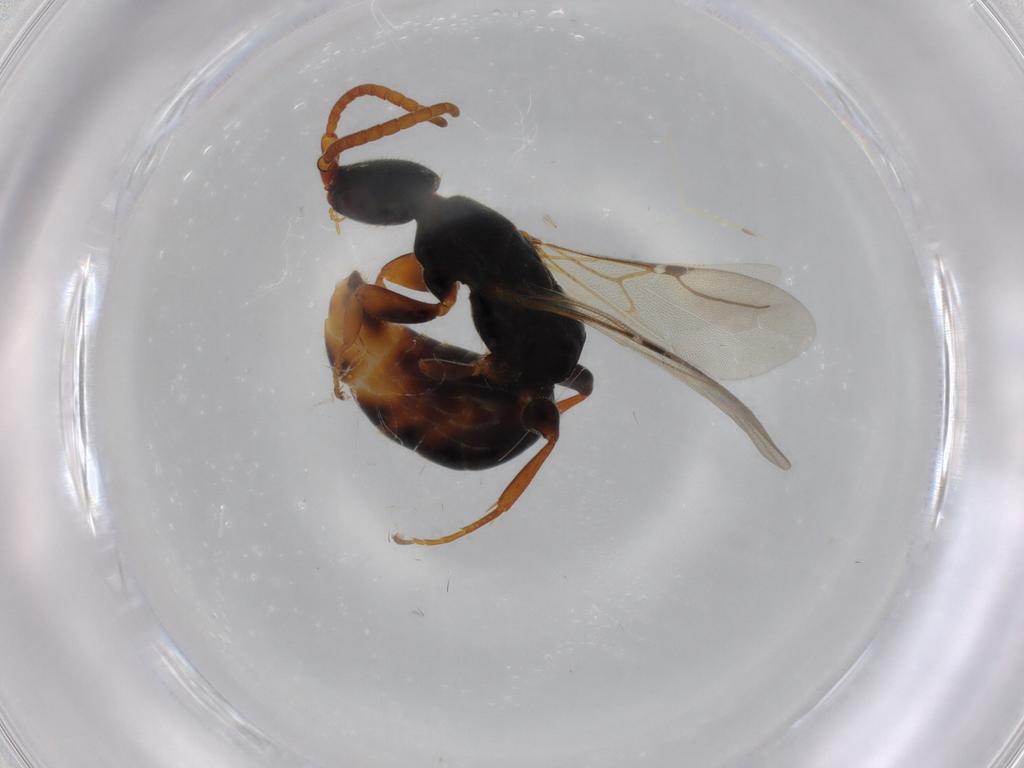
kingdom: Animalia
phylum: Arthropoda
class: Insecta
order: Hymenoptera
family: Bethylidae
